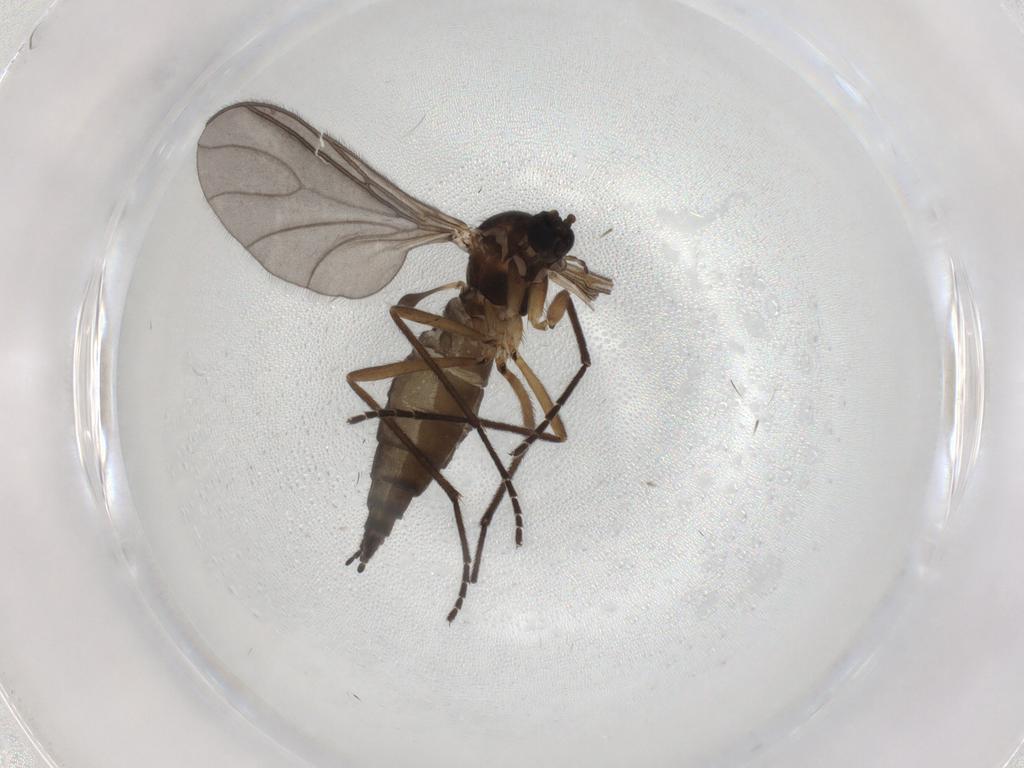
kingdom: Animalia
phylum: Arthropoda
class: Insecta
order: Diptera
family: Sciaridae
